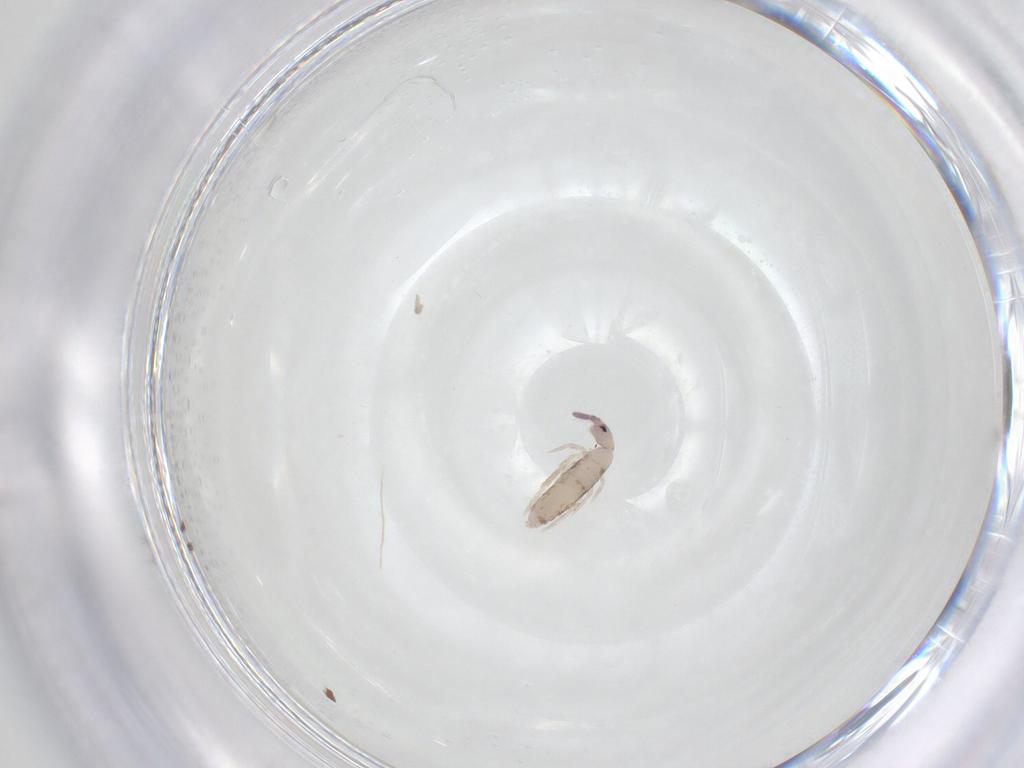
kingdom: Animalia
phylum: Arthropoda
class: Collembola
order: Entomobryomorpha
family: Entomobryidae
